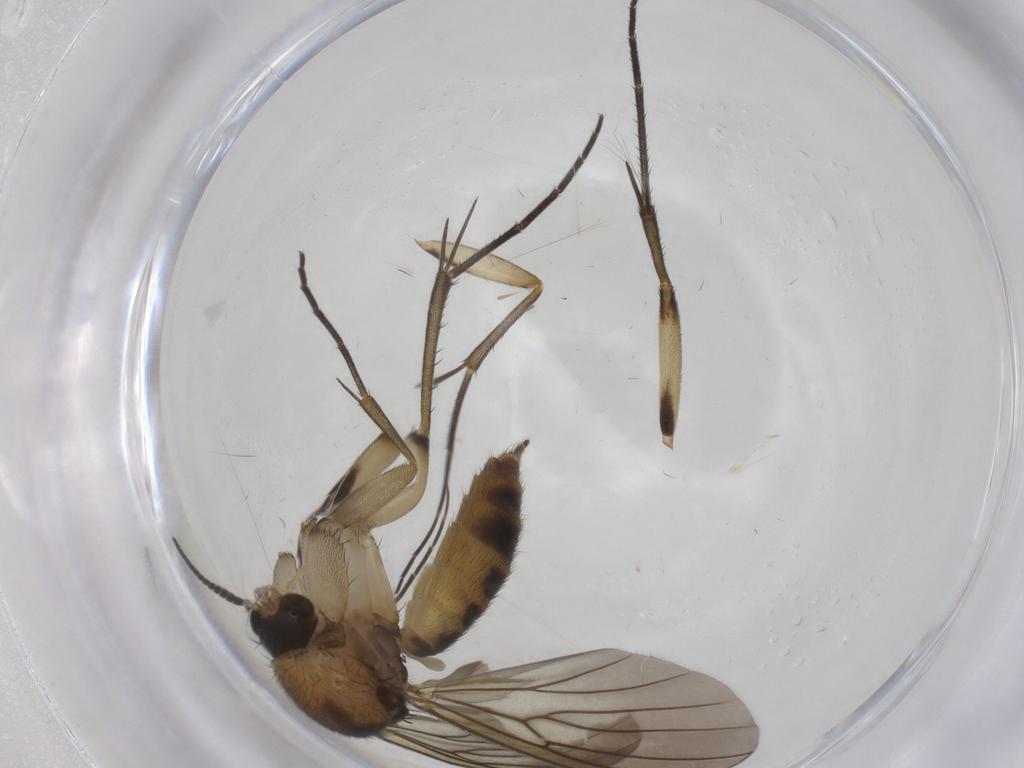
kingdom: Animalia
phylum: Arthropoda
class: Insecta
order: Diptera
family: Mycetophilidae
